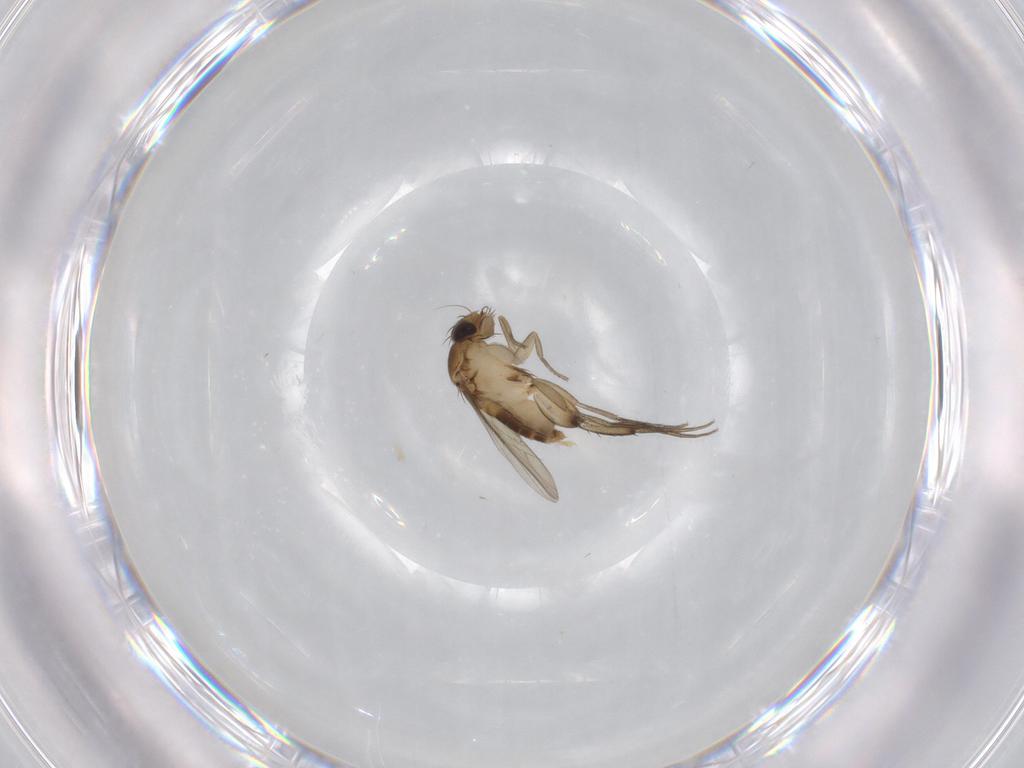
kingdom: Animalia
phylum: Arthropoda
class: Insecta
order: Diptera
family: Phoridae
